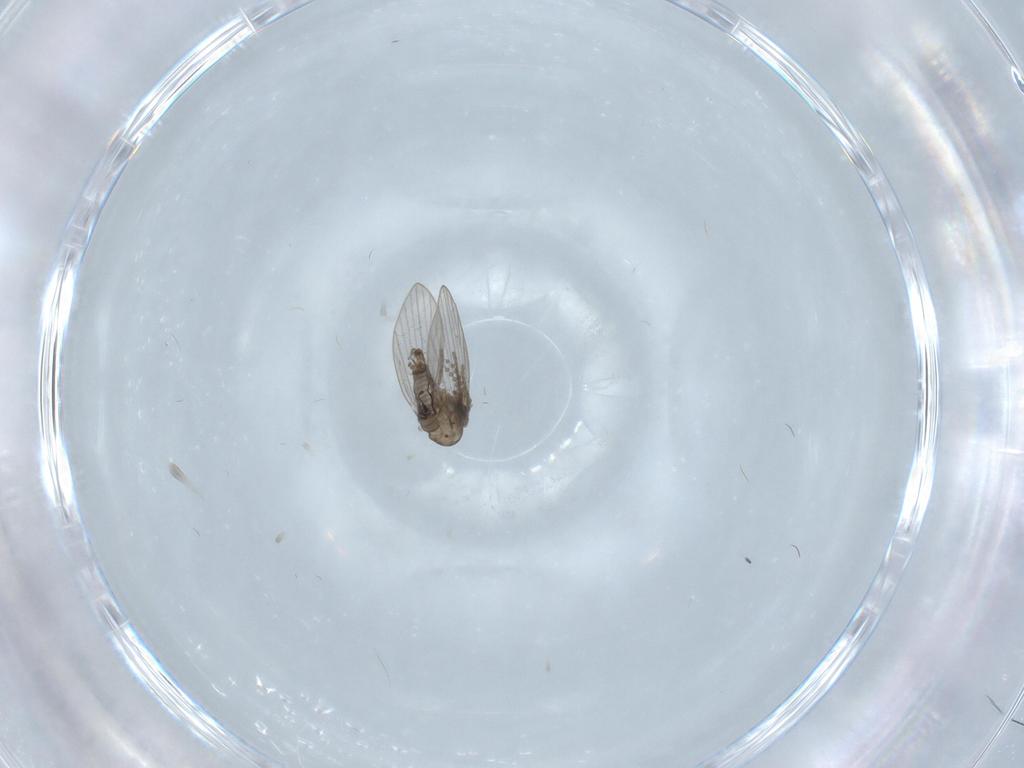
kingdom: Animalia
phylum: Arthropoda
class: Insecta
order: Diptera
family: Psychodidae
